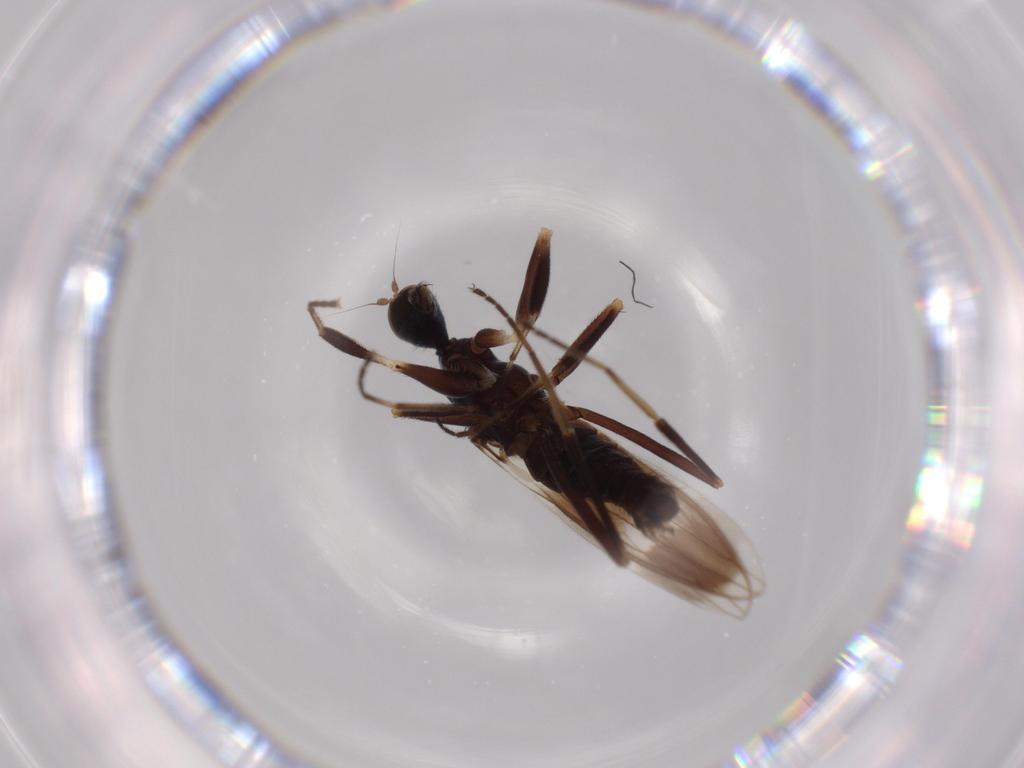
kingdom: Animalia
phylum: Arthropoda
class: Insecta
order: Diptera
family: Hybotidae
